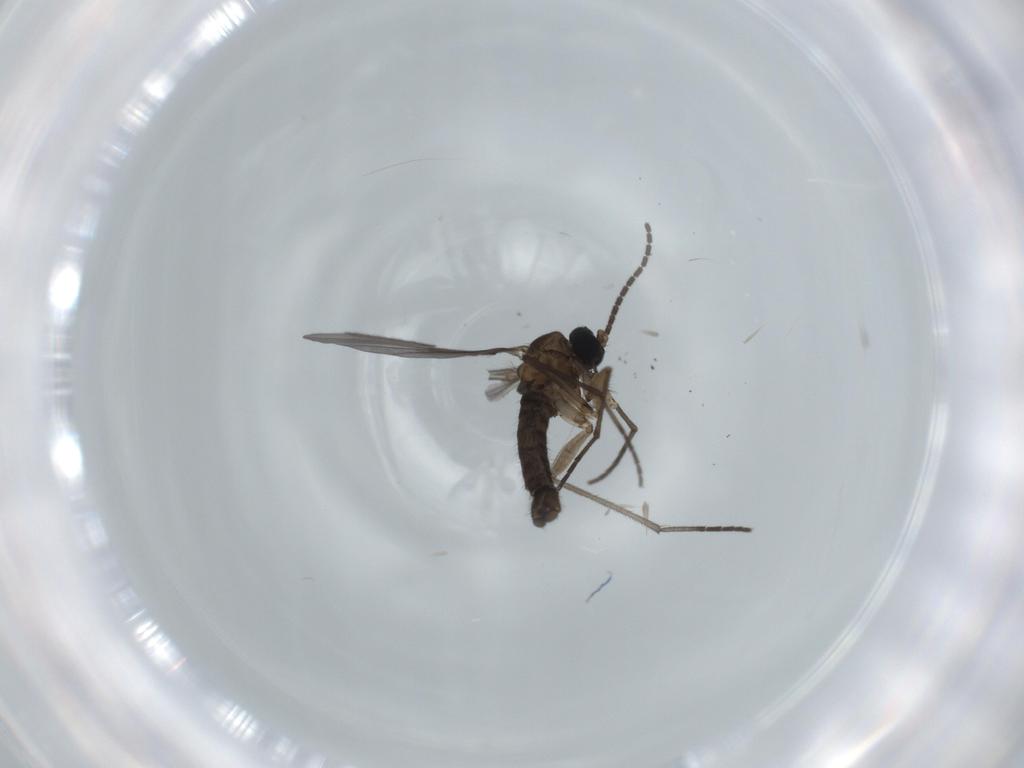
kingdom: Animalia
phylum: Arthropoda
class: Insecta
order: Diptera
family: Sciaridae
